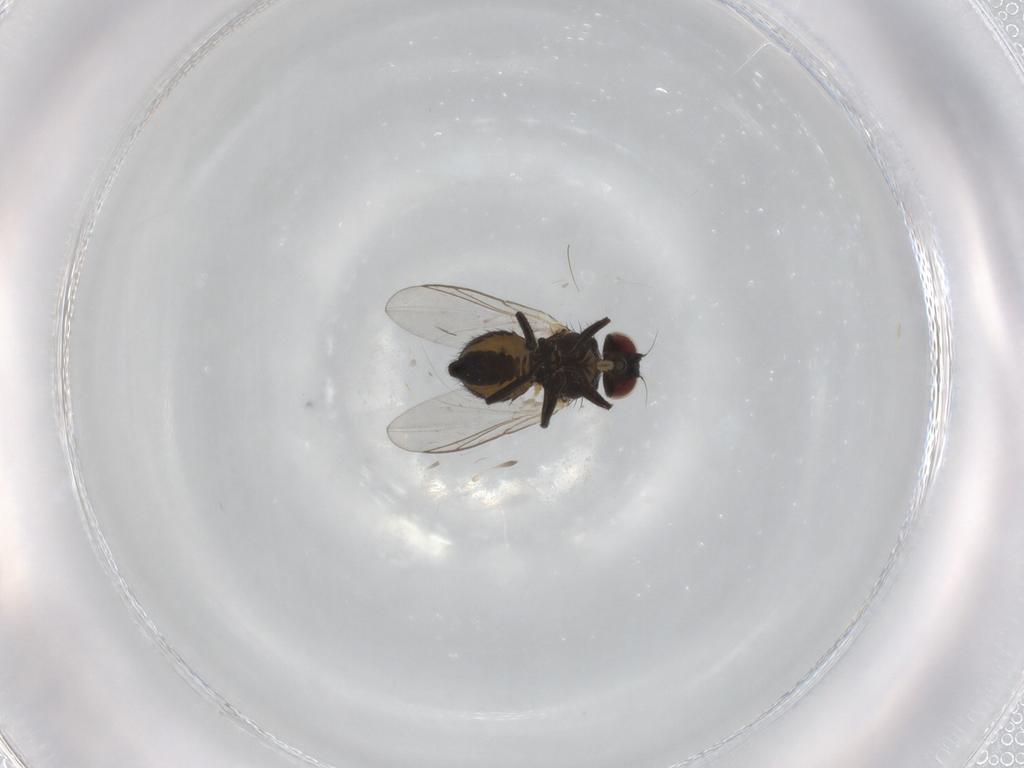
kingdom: Animalia
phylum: Arthropoda
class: Insecta
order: Diptera
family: Agromyzidae
